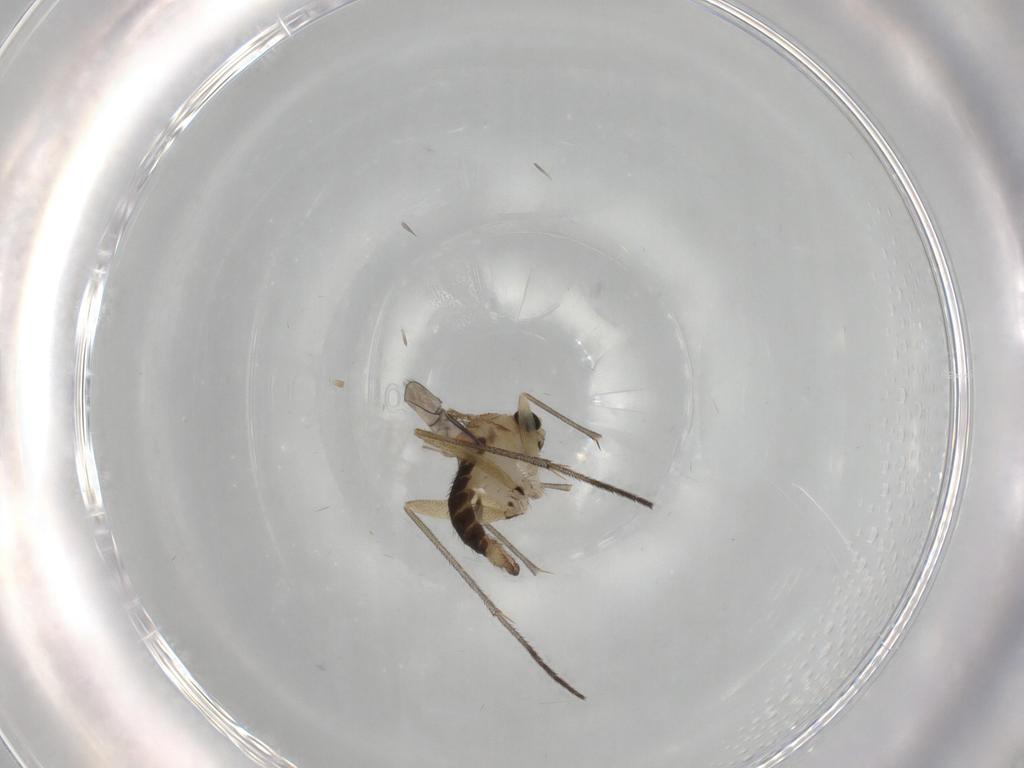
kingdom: Animalia
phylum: Arthropoda
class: Insecta
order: Diptera
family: Sciaridae
